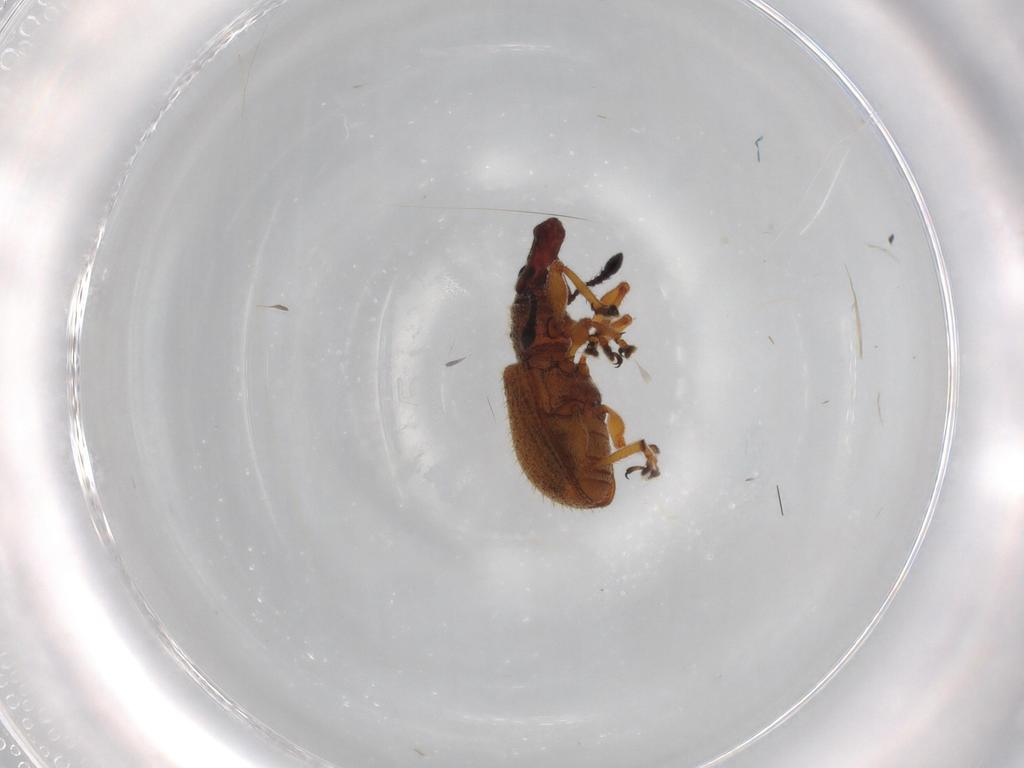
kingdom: Animalia
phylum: Arthropoda
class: Insecta
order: Coleoptera
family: Curculionidae
